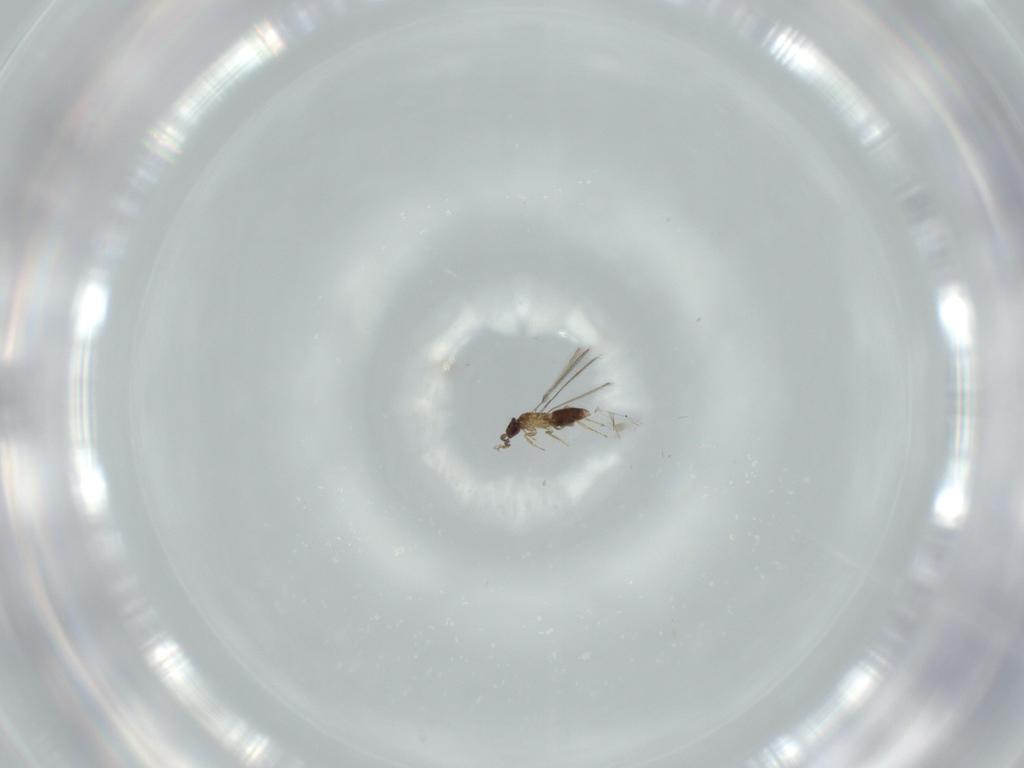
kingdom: Animalia
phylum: Arthropoda
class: Insecta
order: Hymenoptera
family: Mymaridae
